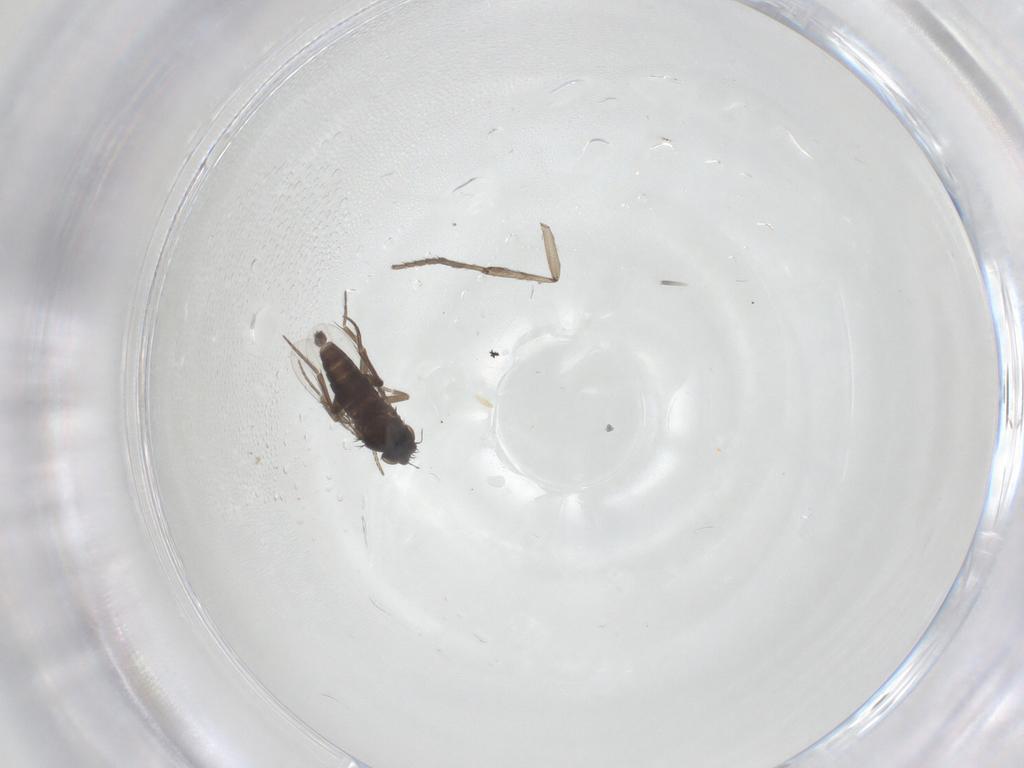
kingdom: Animalia
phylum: Arthropoda
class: Insecta
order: Diptera
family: Psychodidae
